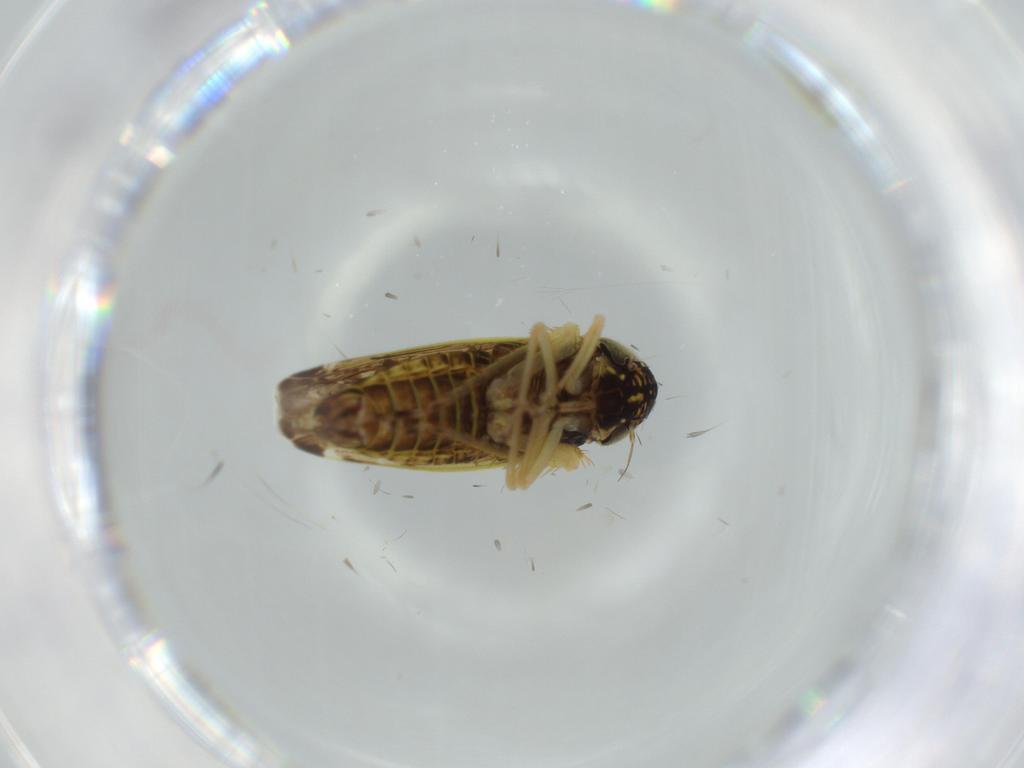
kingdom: Animalia
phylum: Arthropoda
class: Insecta
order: Hemiptera
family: Cicadellidae
